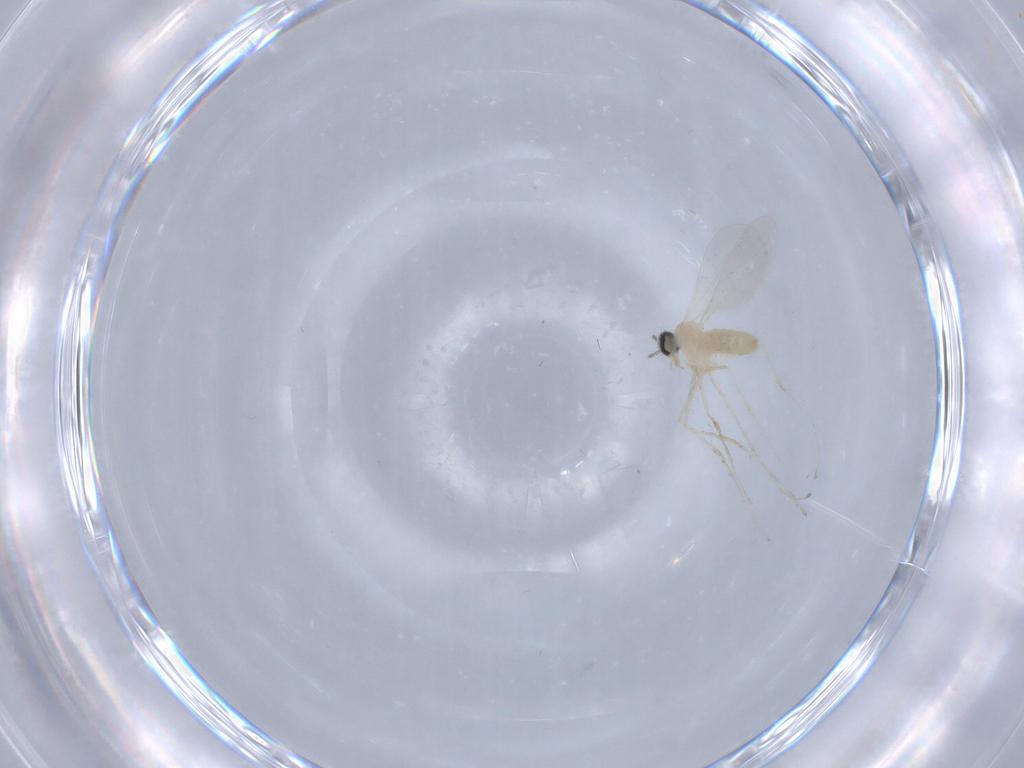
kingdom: Animalia
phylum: Arthropoda
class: Insecta
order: Diptera
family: Cecidomyiidae
